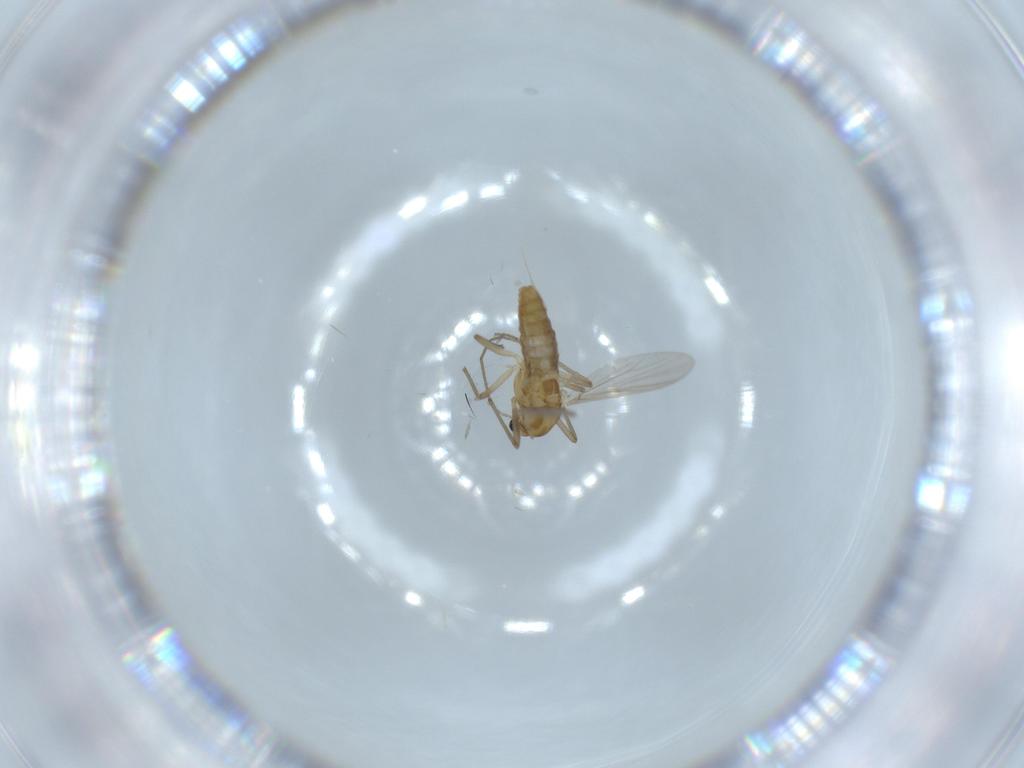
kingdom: Animalia
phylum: Arthropoda
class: Insecta
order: Diptera
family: Chironomidae
